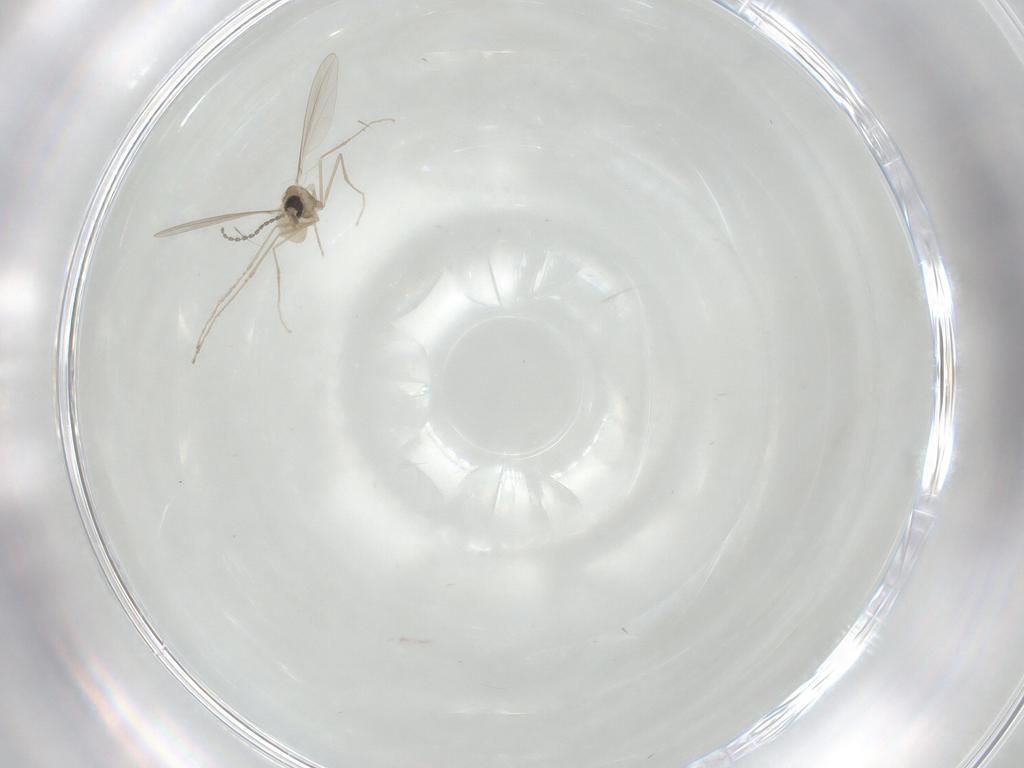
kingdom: Animalia
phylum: Arthropoda
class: Insecta
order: Diptera
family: Cecidomyiidae
